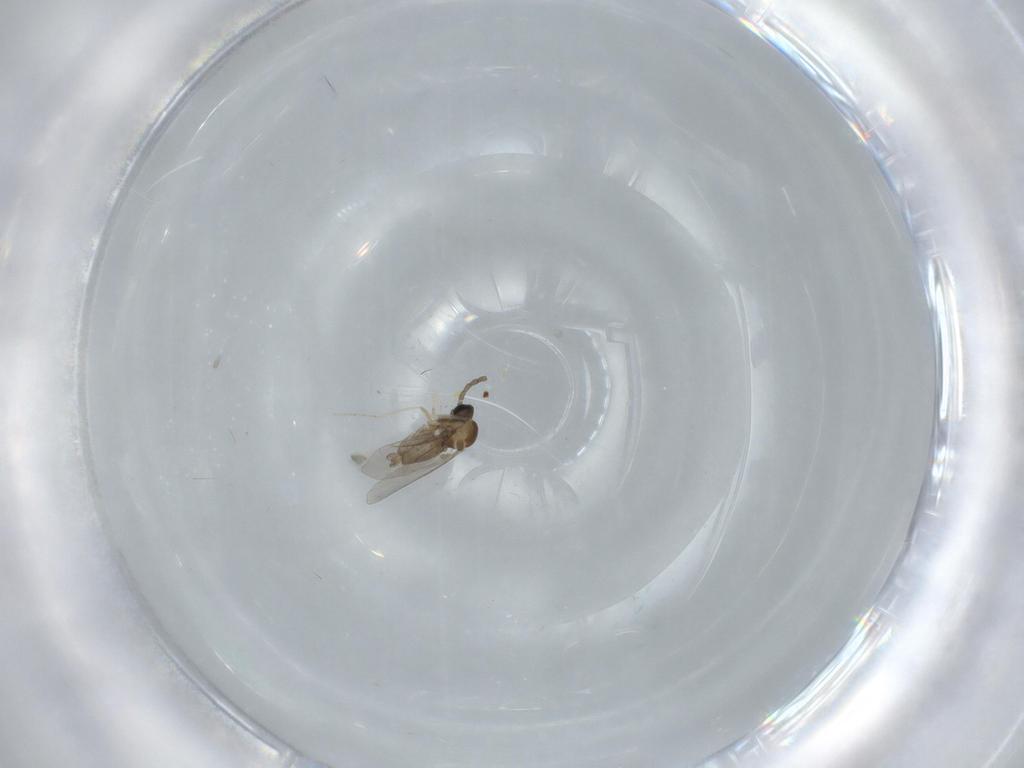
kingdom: Animalia
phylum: Arthropoda
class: Insecta
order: Diptera
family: Cecidomyiidae
